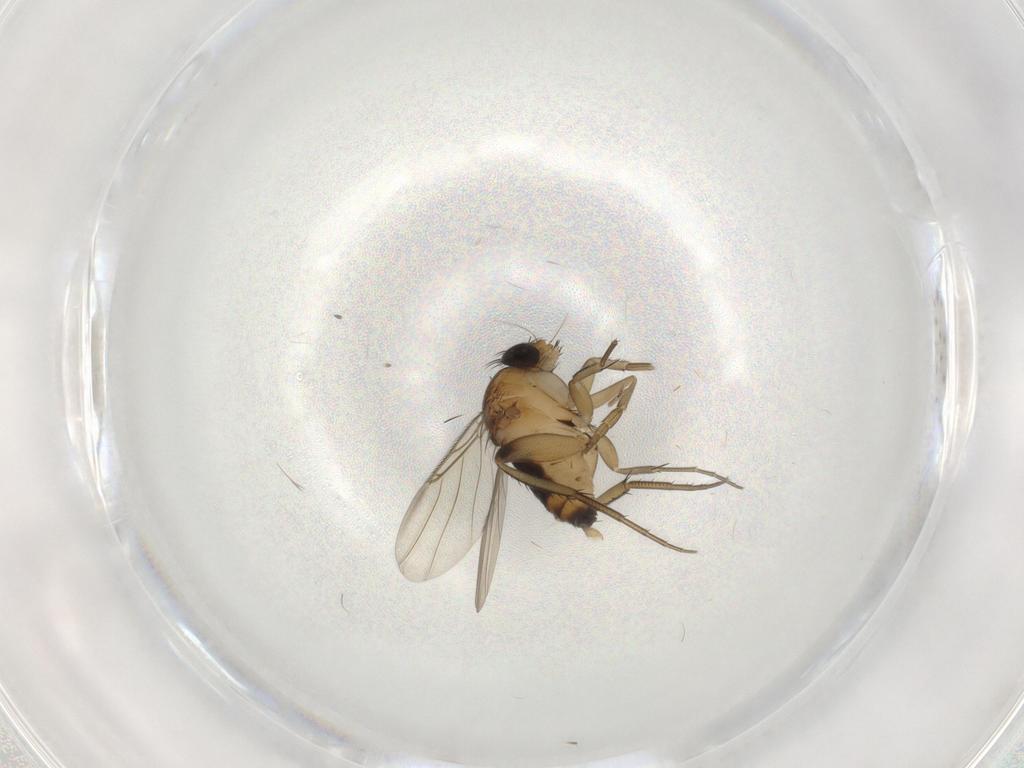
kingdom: Animalia
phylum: Arthropoda
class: Insecta
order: Diptera
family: Phoridae
